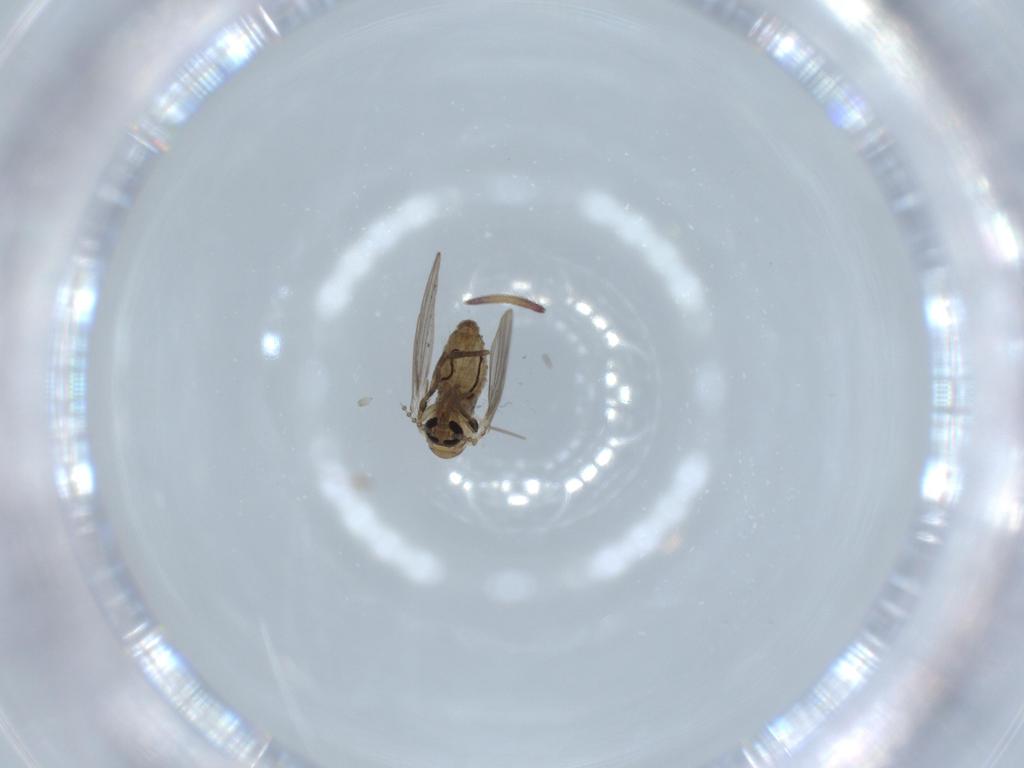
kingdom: Animalia
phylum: Arthropoda
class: Insecta
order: Diptera
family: Psychodidae
